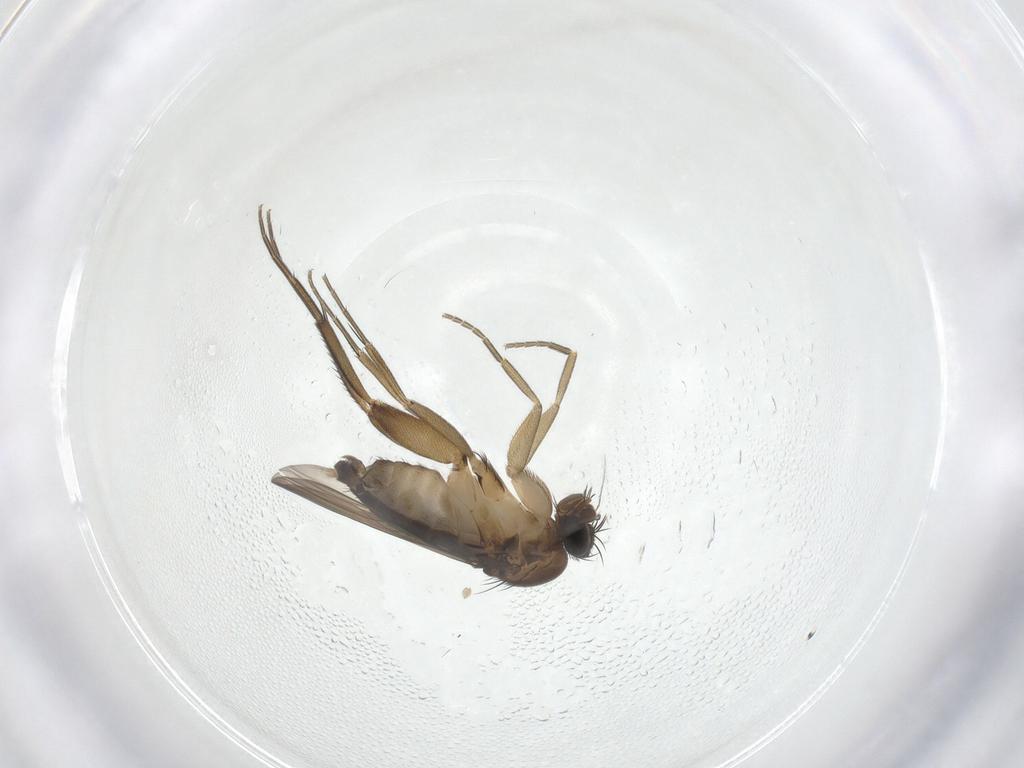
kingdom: Animalia
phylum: Arthropoda
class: Insecta
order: Diptera
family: Phoridae
